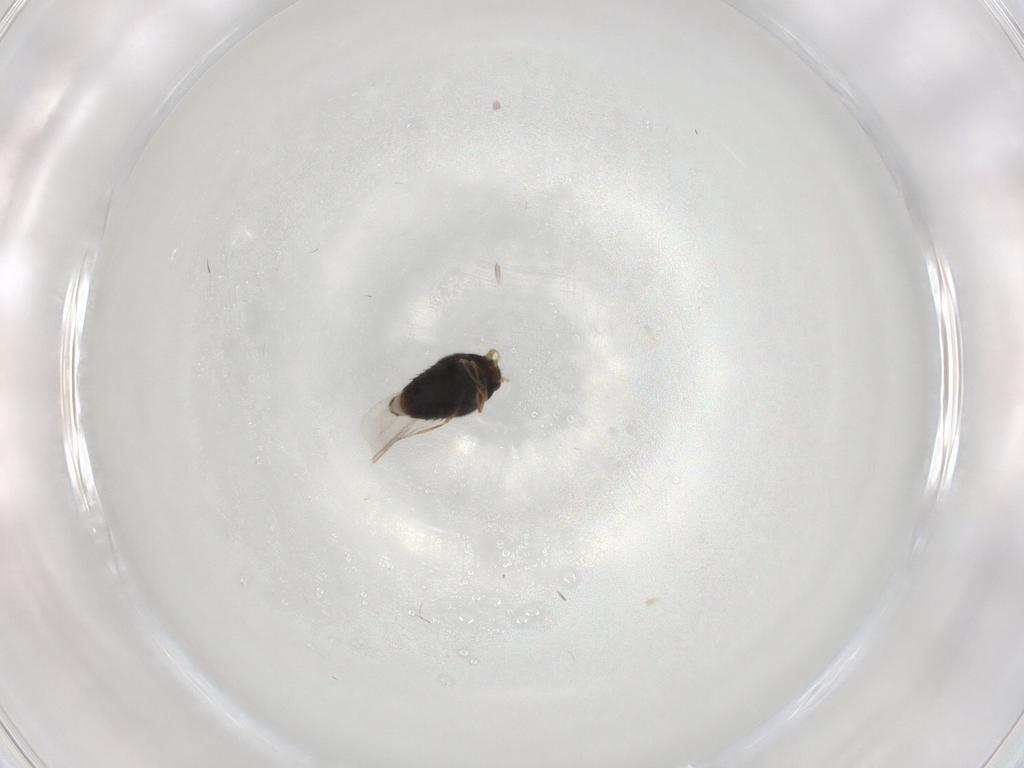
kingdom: Animalia
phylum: Arthropoda
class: Insecta
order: Coleoptera
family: Staphylinidae
